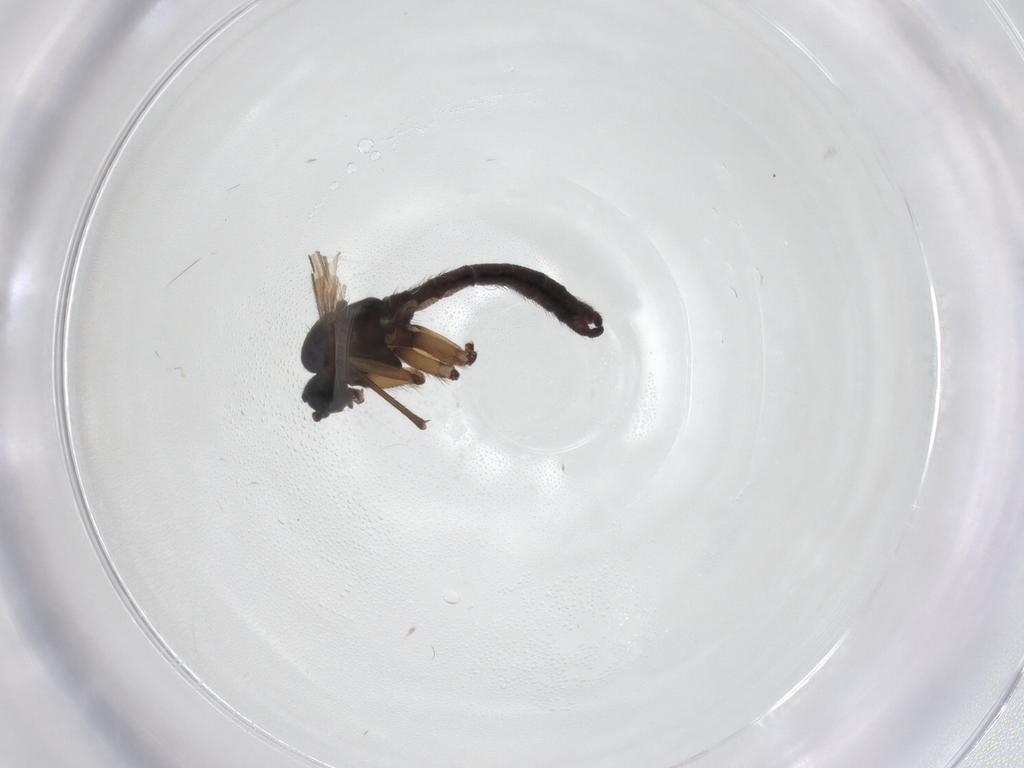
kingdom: Animalia
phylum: Arthropoda
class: Insecta
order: Diptera
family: Sciaridae
